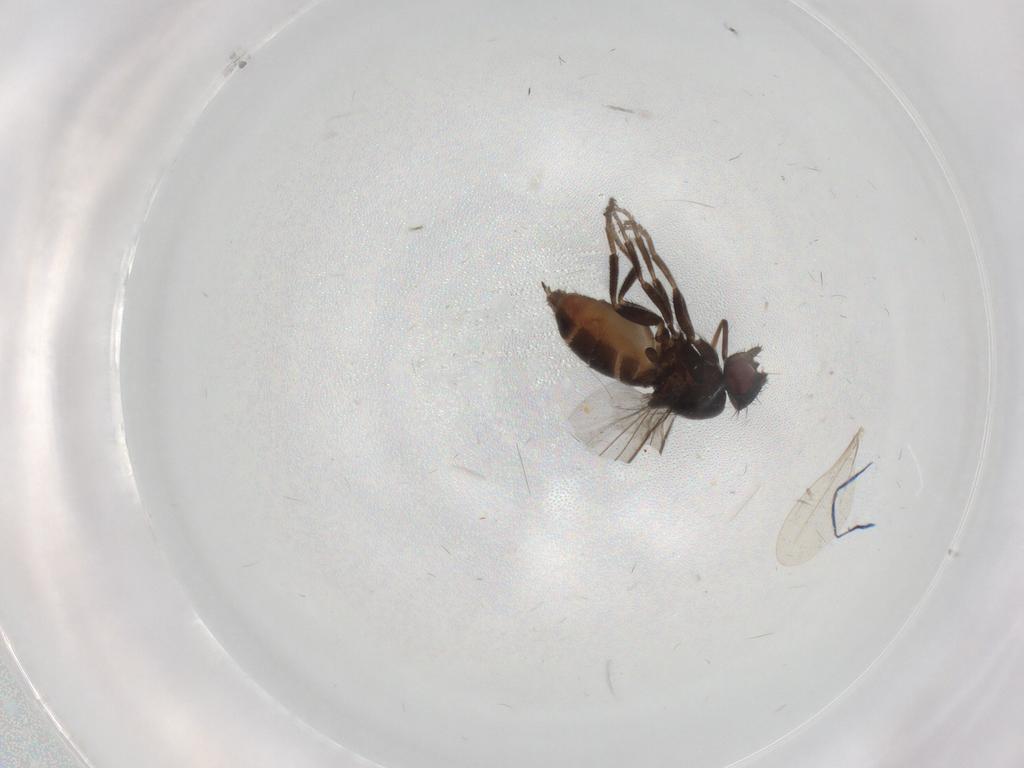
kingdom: Animalia
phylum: Arthropoda
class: Insecta
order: Diptera
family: Milichiidae
